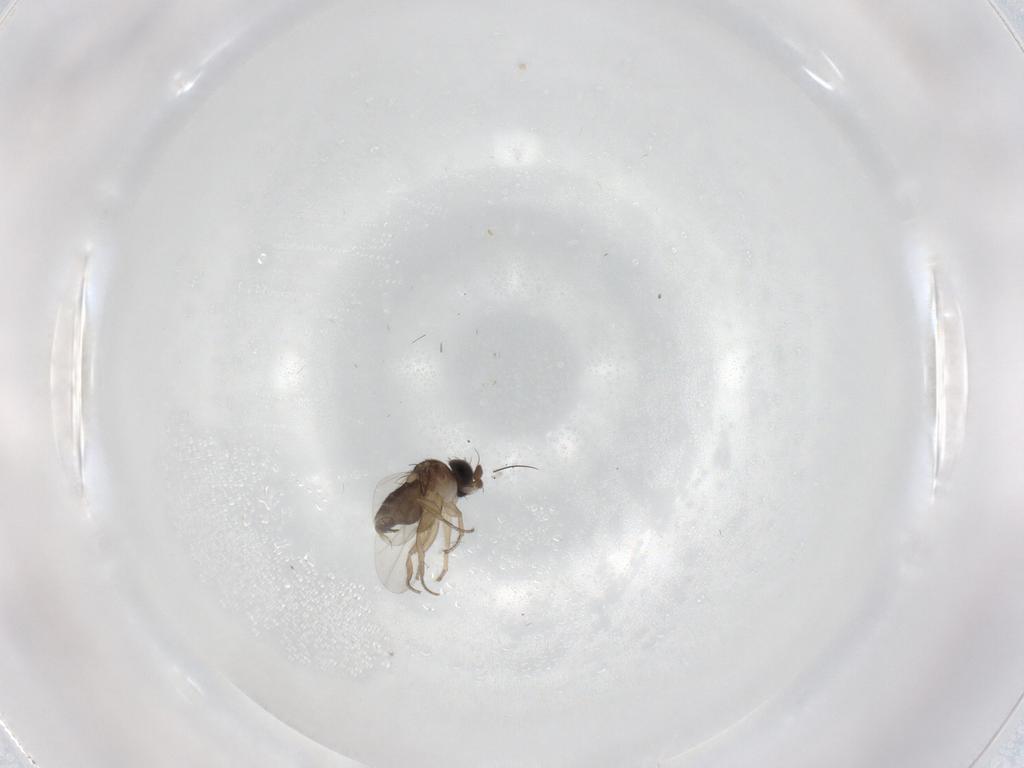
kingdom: Animalia
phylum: Arthropoda
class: Insecta
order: Diptera
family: Phoridae
